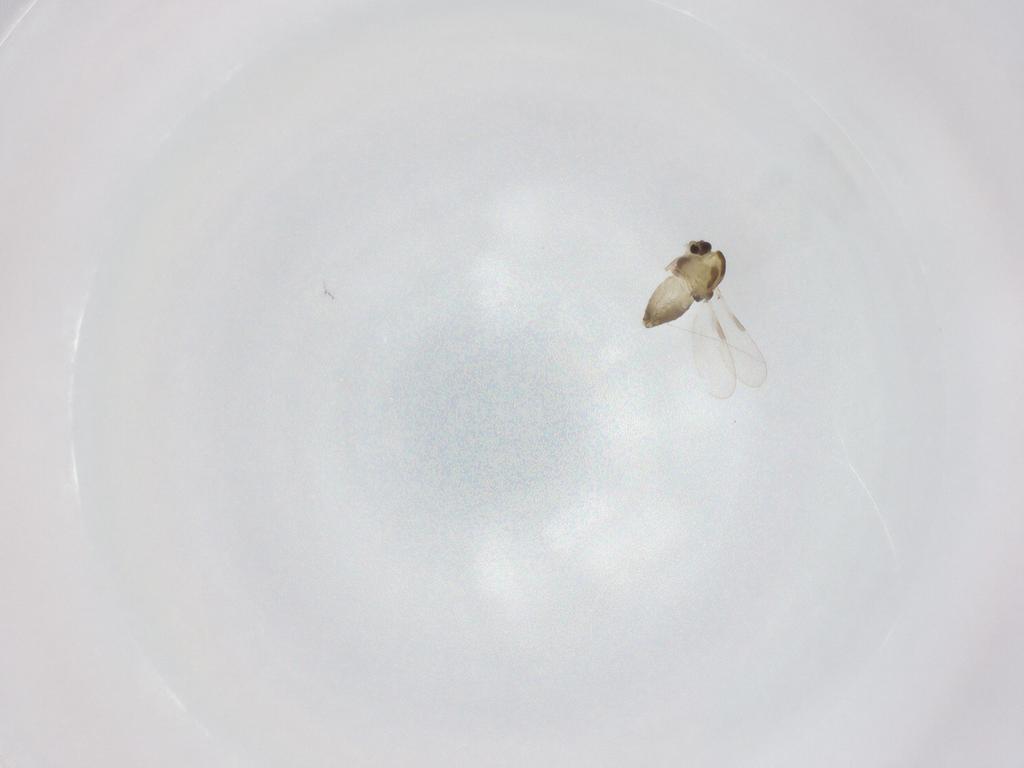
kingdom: Animalia
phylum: Arthropoda
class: Insecta
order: Diptera
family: Chironomidae
